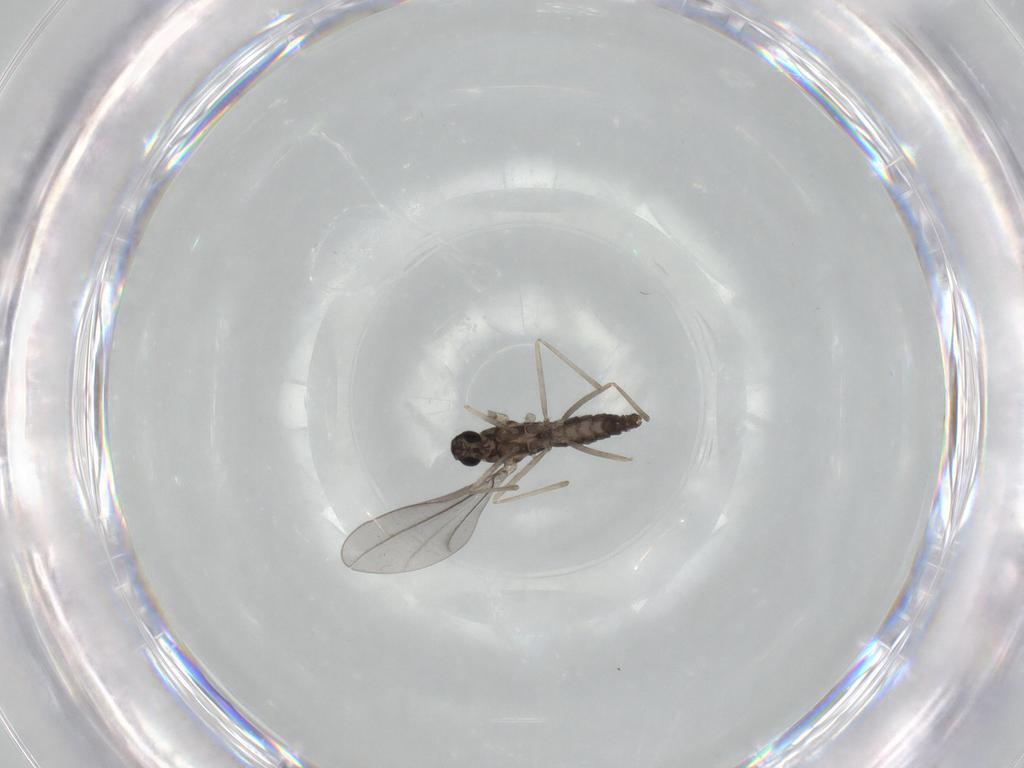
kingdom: Animalia
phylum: Arthropoda
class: Insecta
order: Diptera
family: Cecidomyiidae
